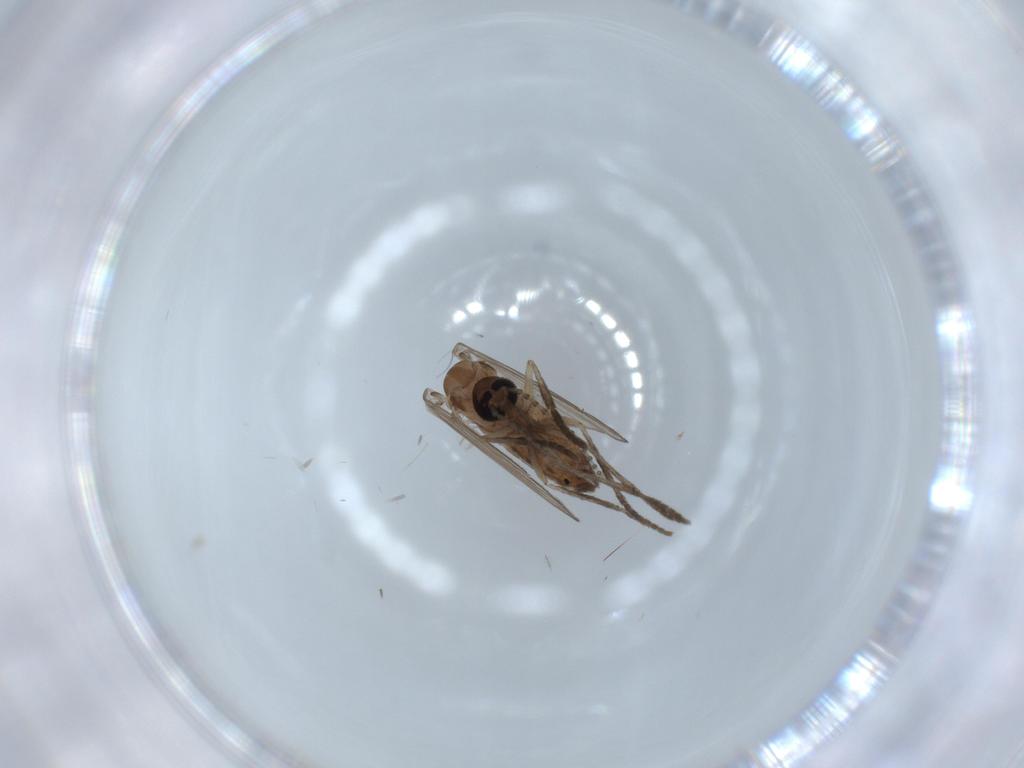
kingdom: Animalia
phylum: Arthropoda
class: Insecta
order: Diptera
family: Psychodidae
